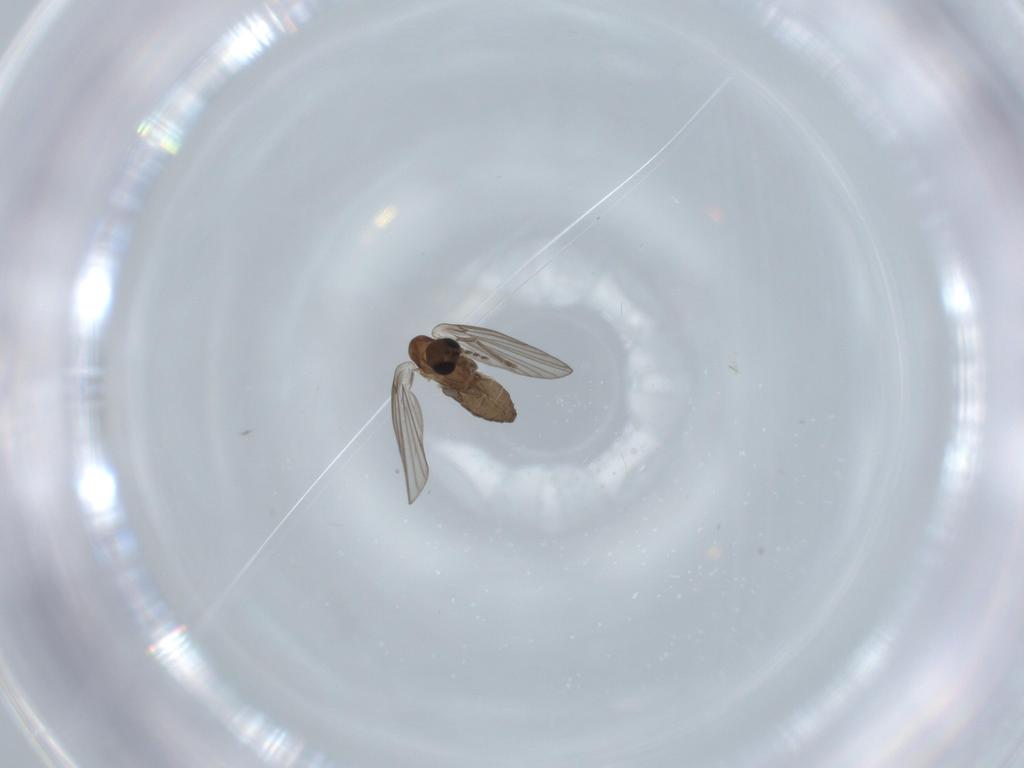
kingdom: Animalia
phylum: Arthropoda
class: Insecta
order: Diptera
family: Psychodidae
